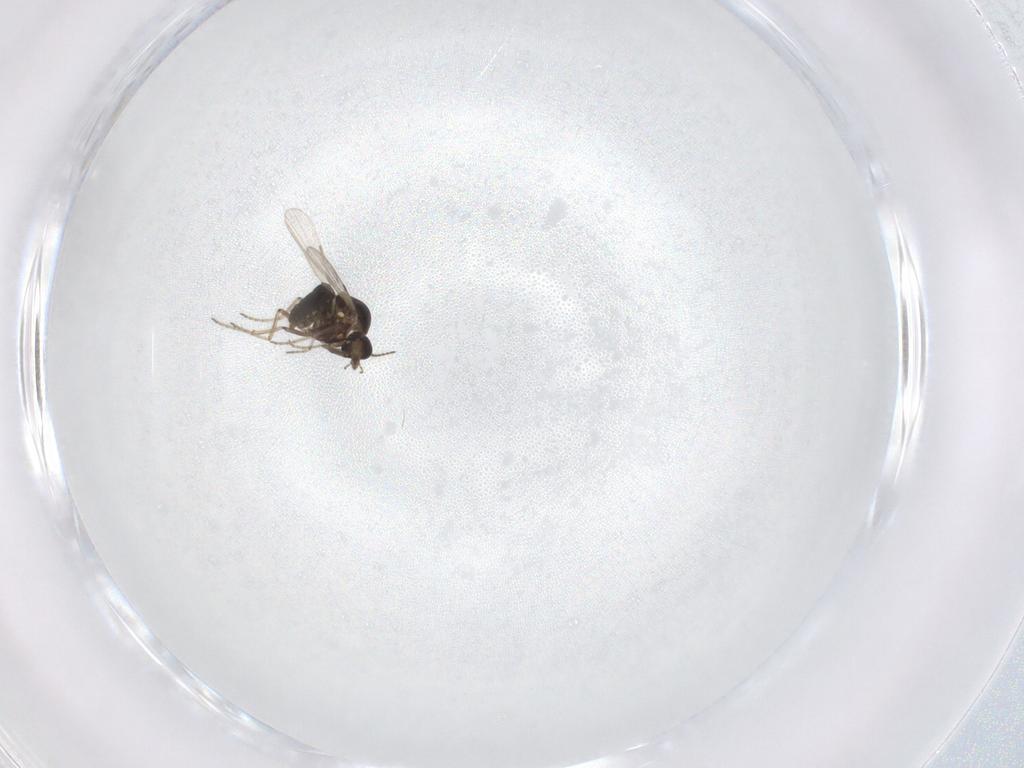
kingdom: Animalia
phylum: Arthropoda
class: Insecta
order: Diptera
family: Ceratopogonidae
